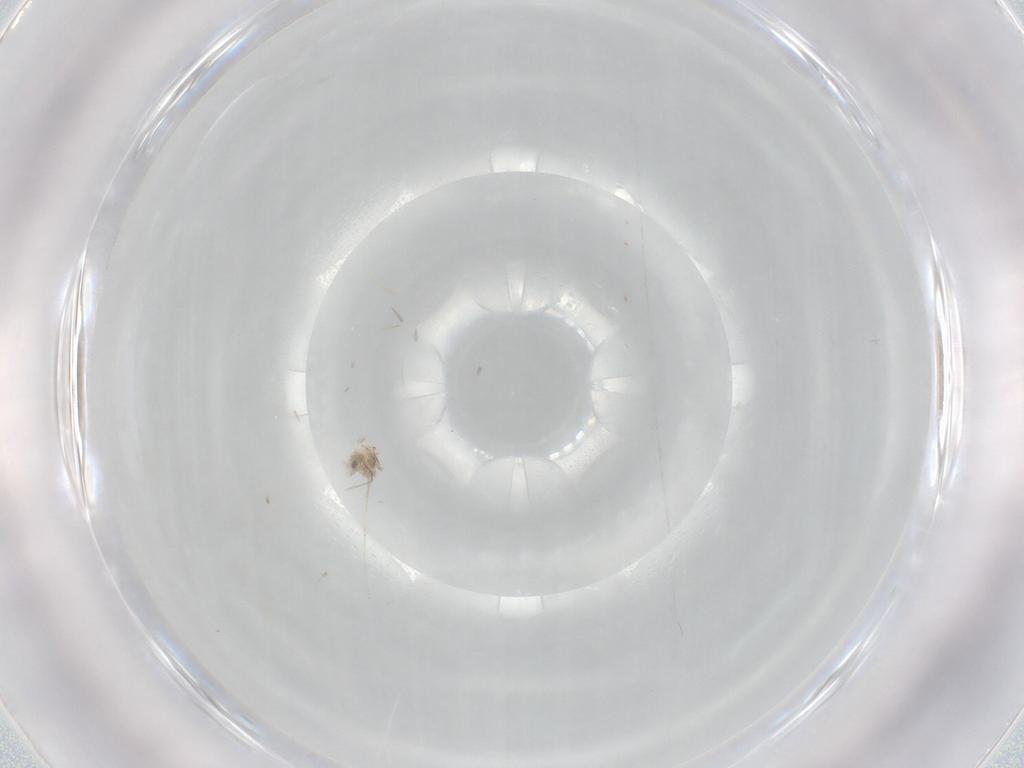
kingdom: Animalia
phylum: Arthropoda
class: Insecta
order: Diptera
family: Cecidomyiidae
